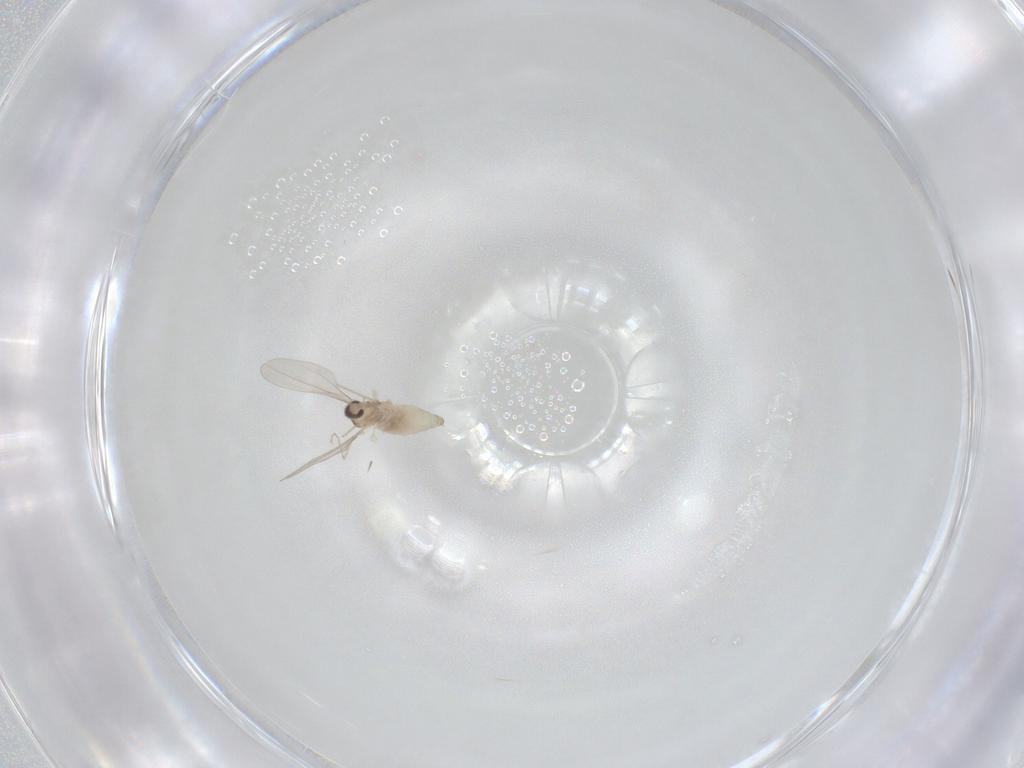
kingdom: Animalia
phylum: Arthropoda
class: Insecta
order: Diptera
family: Cecidomyiidae
